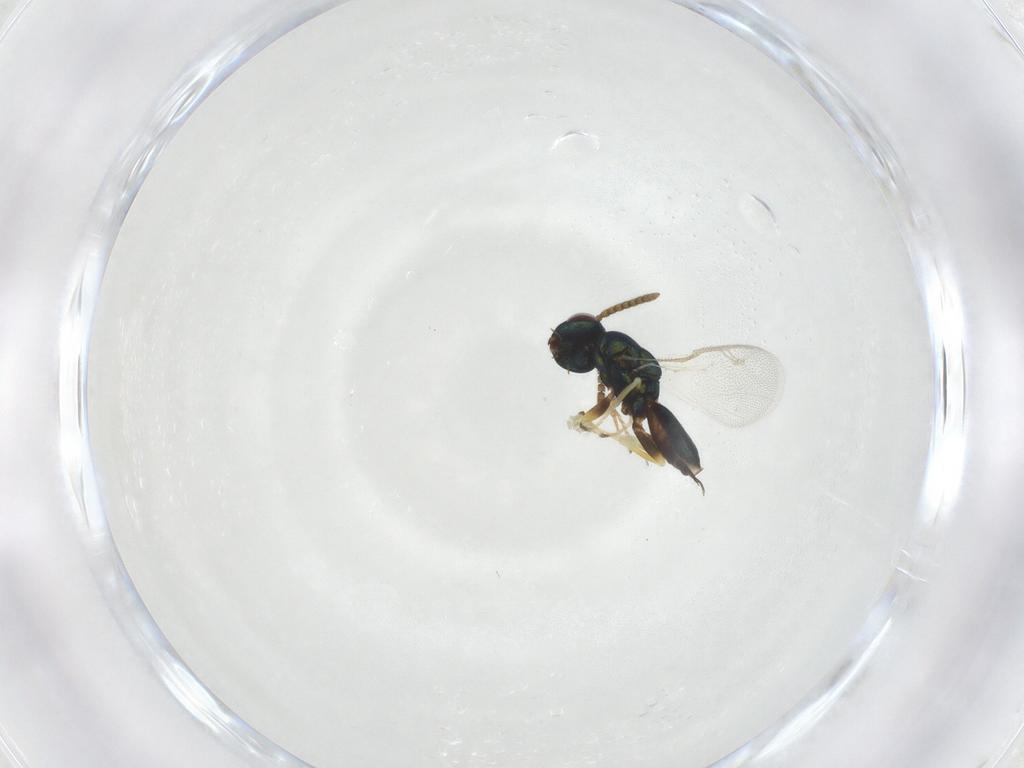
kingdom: Animalia
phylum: Arthropoda
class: Insecta
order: Hymenoptera
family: Pteromalidae
